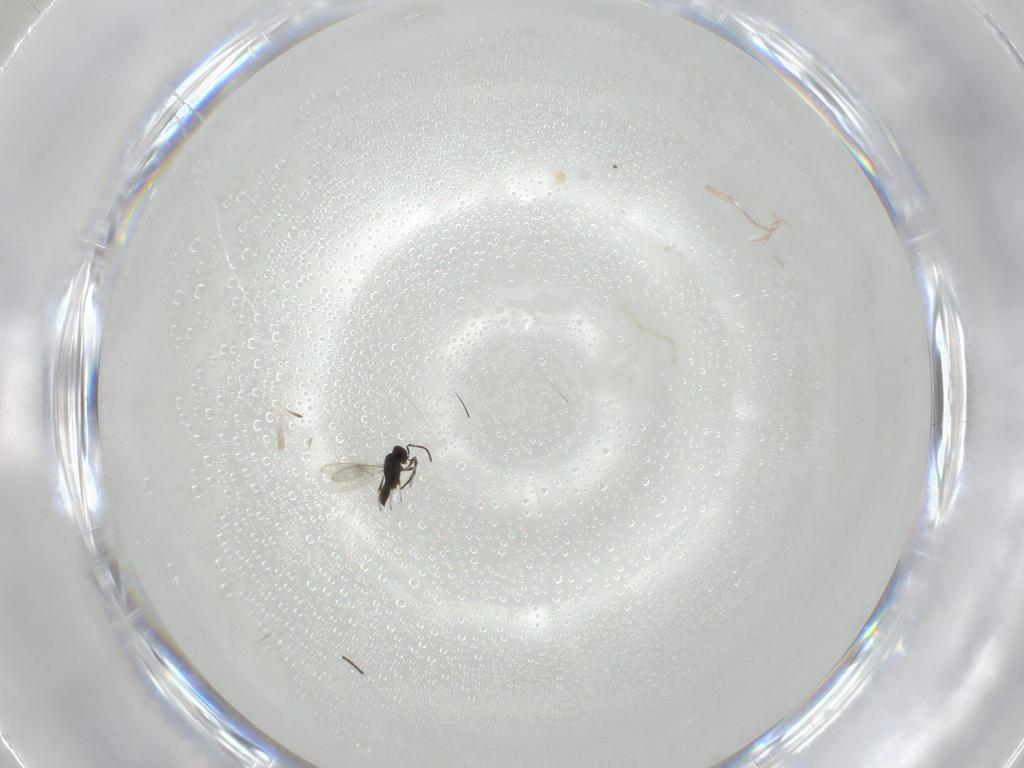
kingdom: Animalia
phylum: Arthropoda
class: Insecta
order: Hymenoptera
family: Scelionidae
